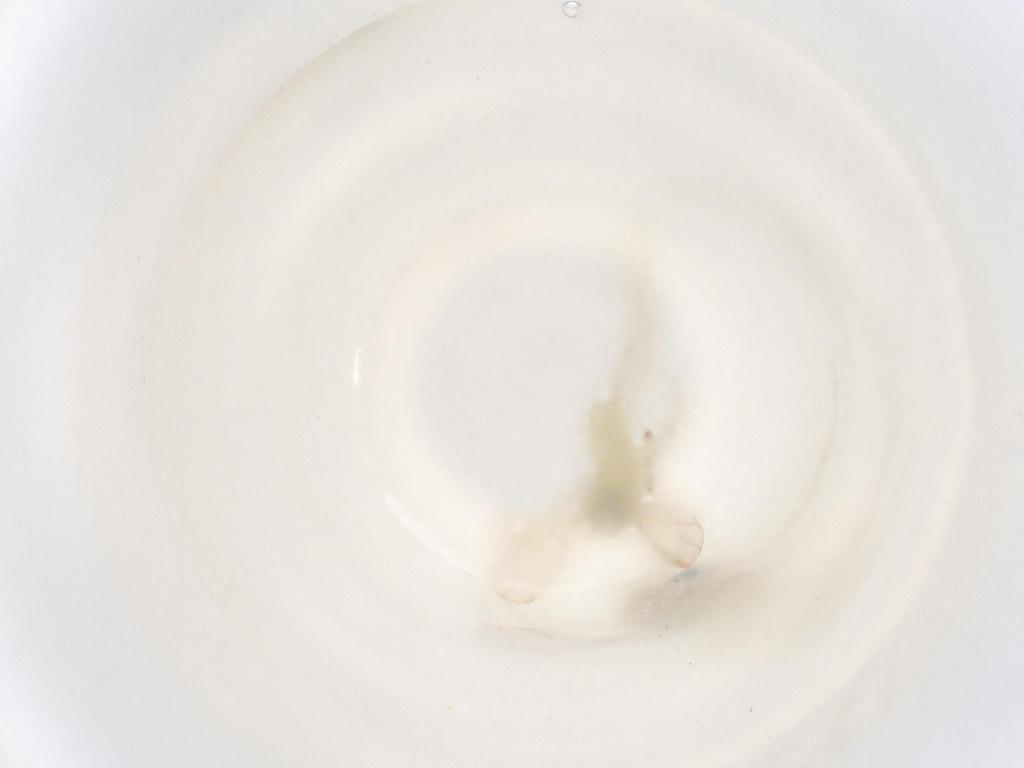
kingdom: Animalia
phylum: Arthropoda
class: Insecta
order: Diptera
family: Chironomidae
